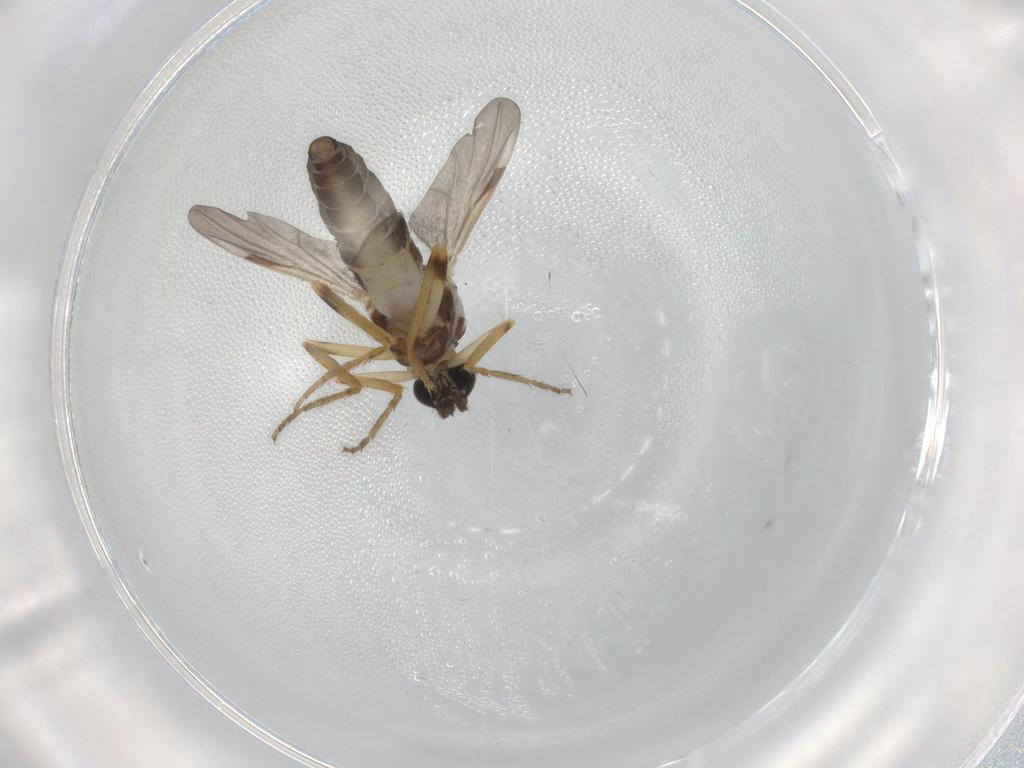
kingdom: Animalia
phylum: Arthropoda
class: Insecta
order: Diptera
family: Ceratopogonidae
